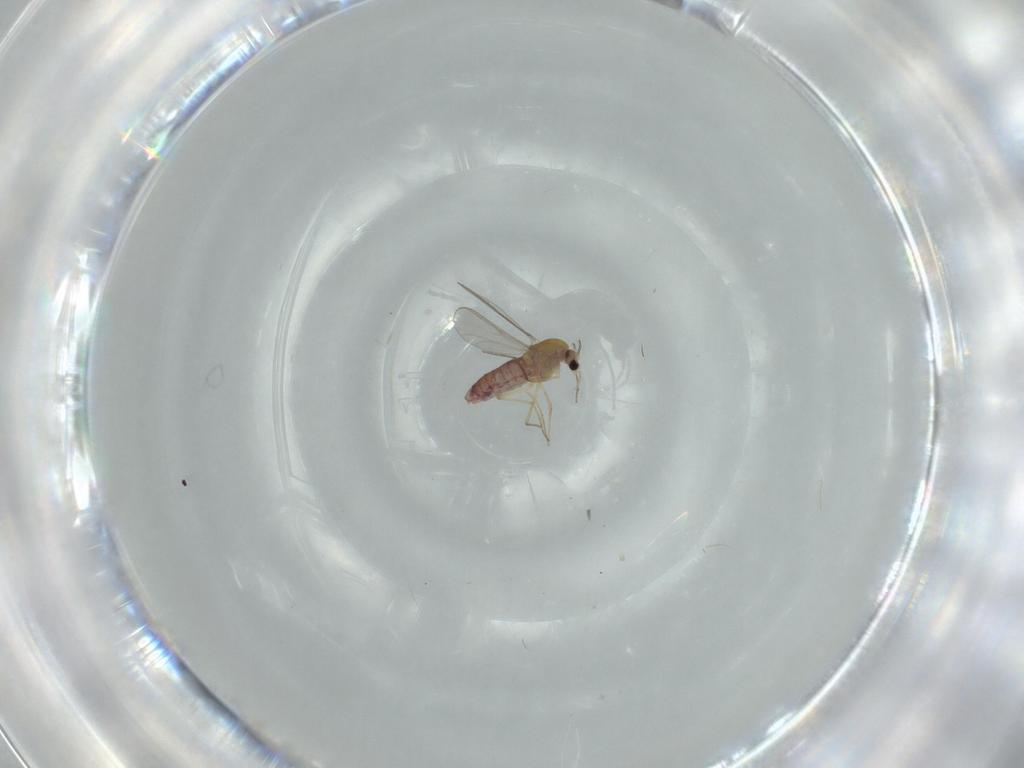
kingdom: Animalia
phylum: Arthropoda
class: Insecta
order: Diptera
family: Chironomidae
